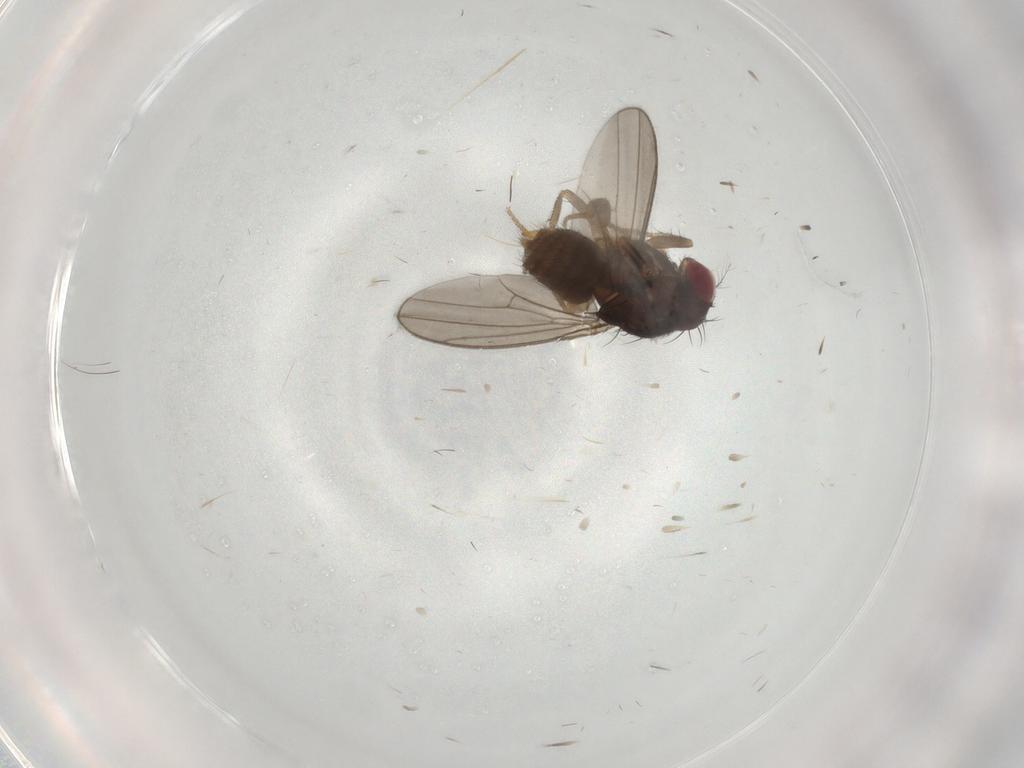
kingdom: Animalia
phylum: Arthropoda
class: Insecta
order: Diptera
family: Drosophilidae
